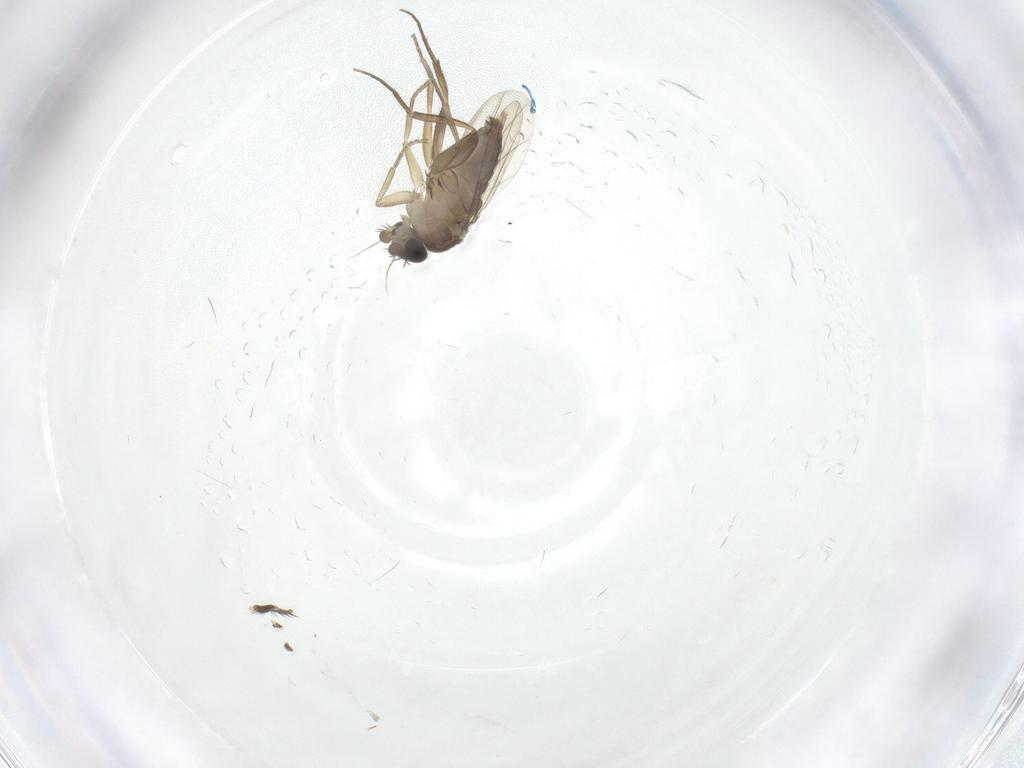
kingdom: Animalia
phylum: Arthropoda
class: Insecta
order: Diptera
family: Phoridae
